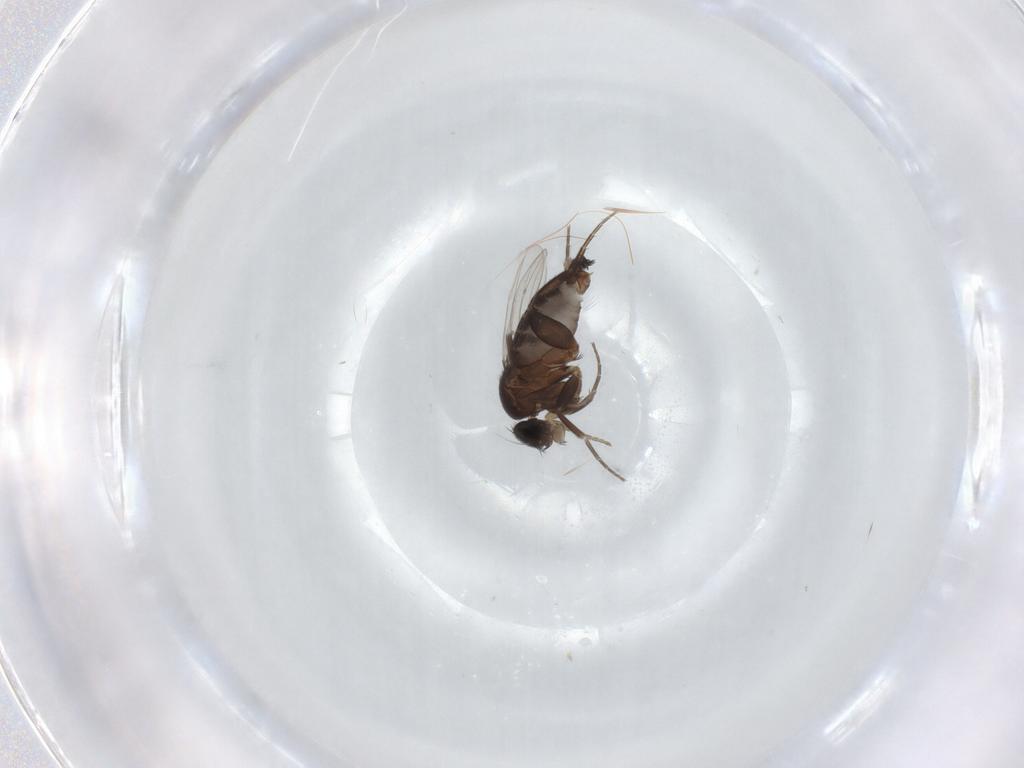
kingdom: Animalia
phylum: Arthropoda
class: Insecta
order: Diptera
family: Phoridae
